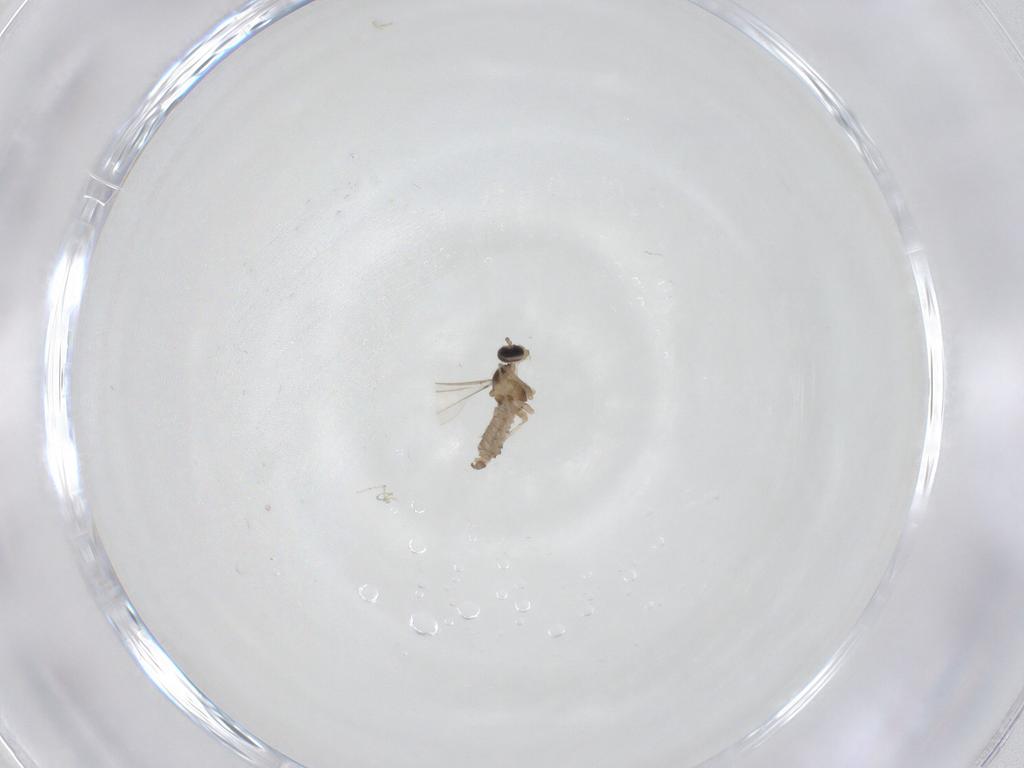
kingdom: Animalia
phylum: Arthropoda
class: Insecta
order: Diptera
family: Cecidomyiidae
